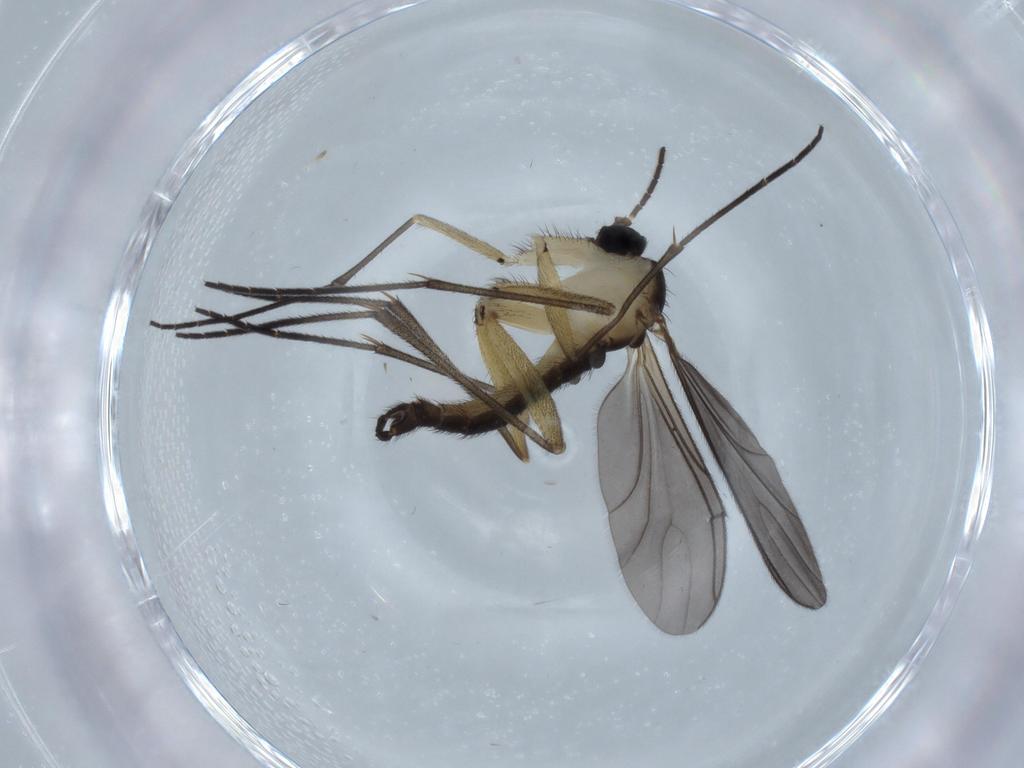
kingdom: Animalia
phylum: Arthropoda
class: Insecta
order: Diptera
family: Sciaridae
